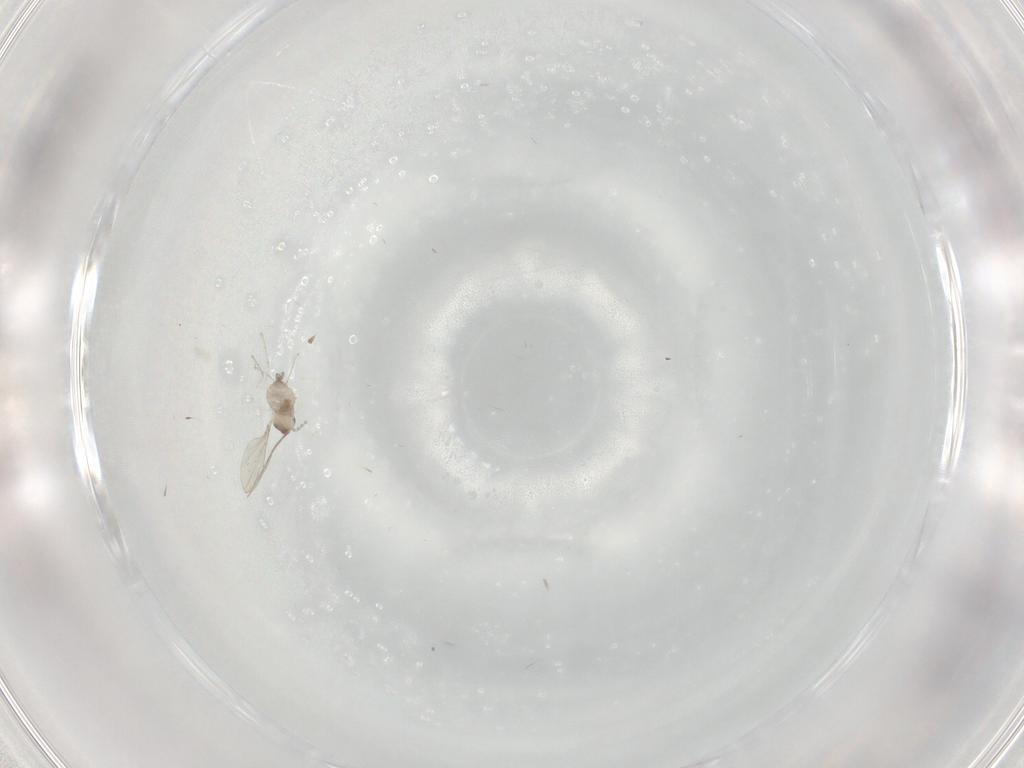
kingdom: Animalia
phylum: Arthropoda
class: Insecta
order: Diptera
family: Cecidomyiidae
